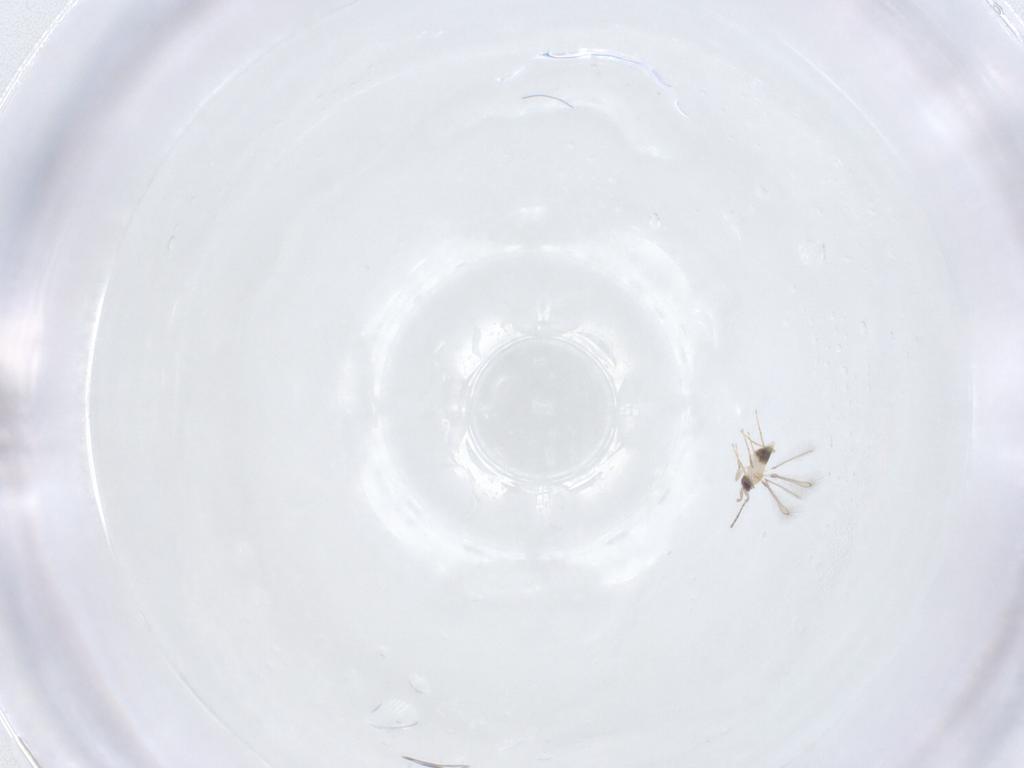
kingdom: Animalia
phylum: Arthropoda
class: Insecta
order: Hymenoptera
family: Mymaridae
